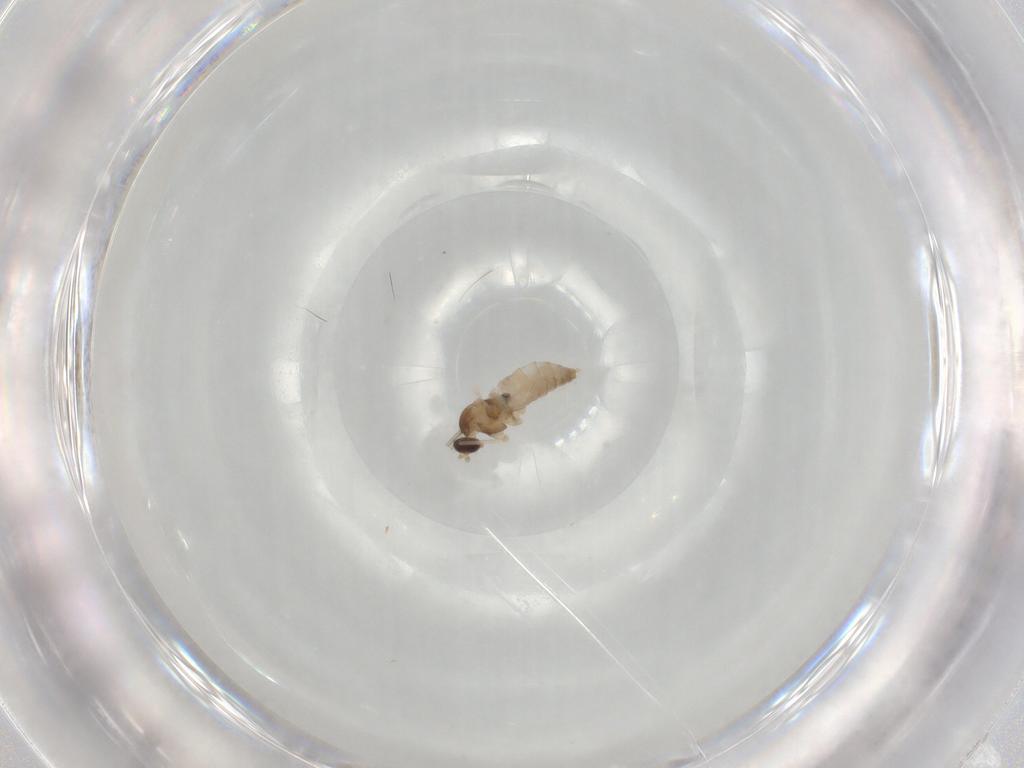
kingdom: Animalia
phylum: Arthropoda
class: Insecta
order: Diptera
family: Cecidomyiidae
